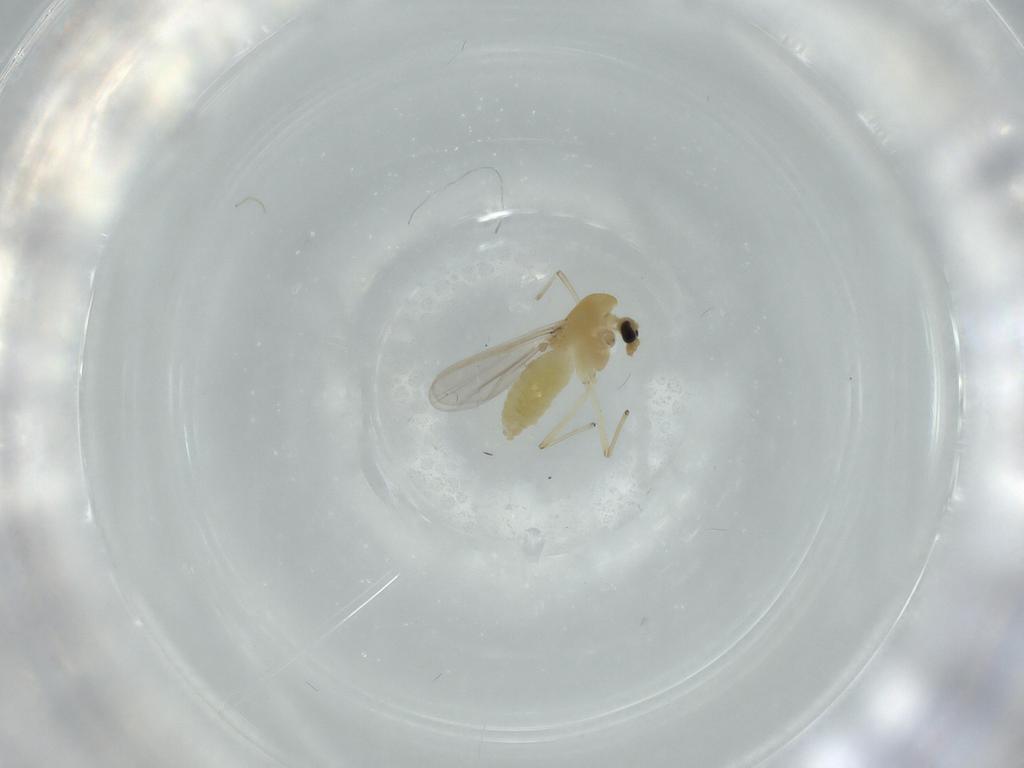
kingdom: Animalia
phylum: Arthropoda
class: Insecta
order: Diptera
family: Chironomidae
